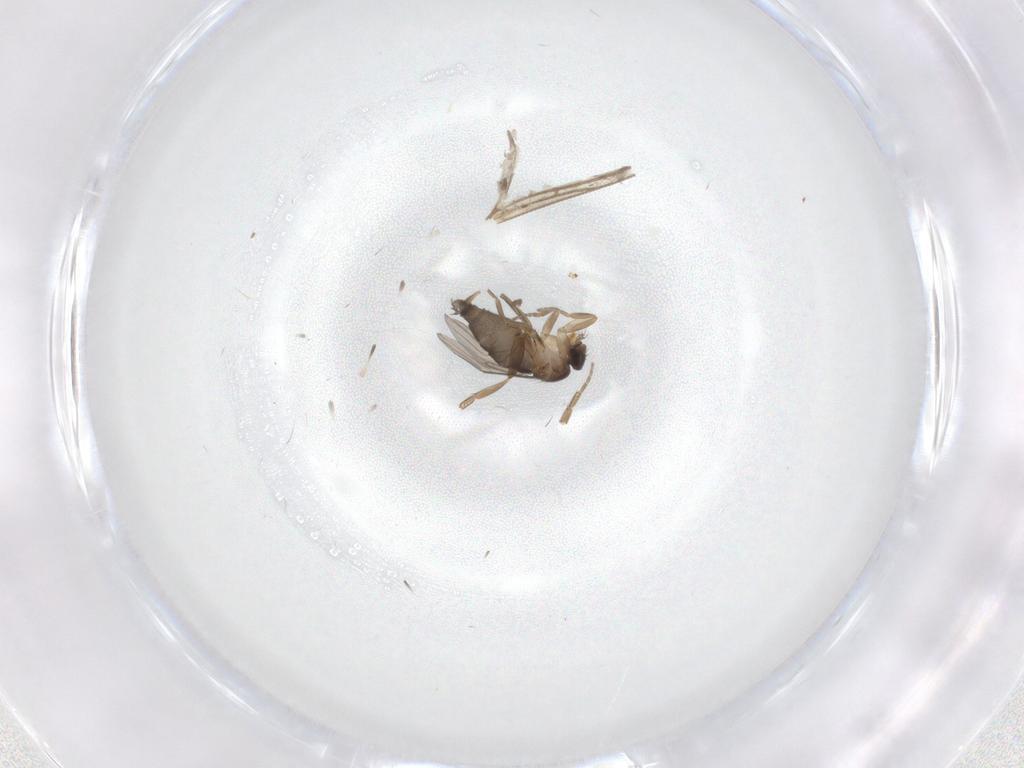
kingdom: Animalia
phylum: Arthropoda
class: Insecta
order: Diptera
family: Phoridae
